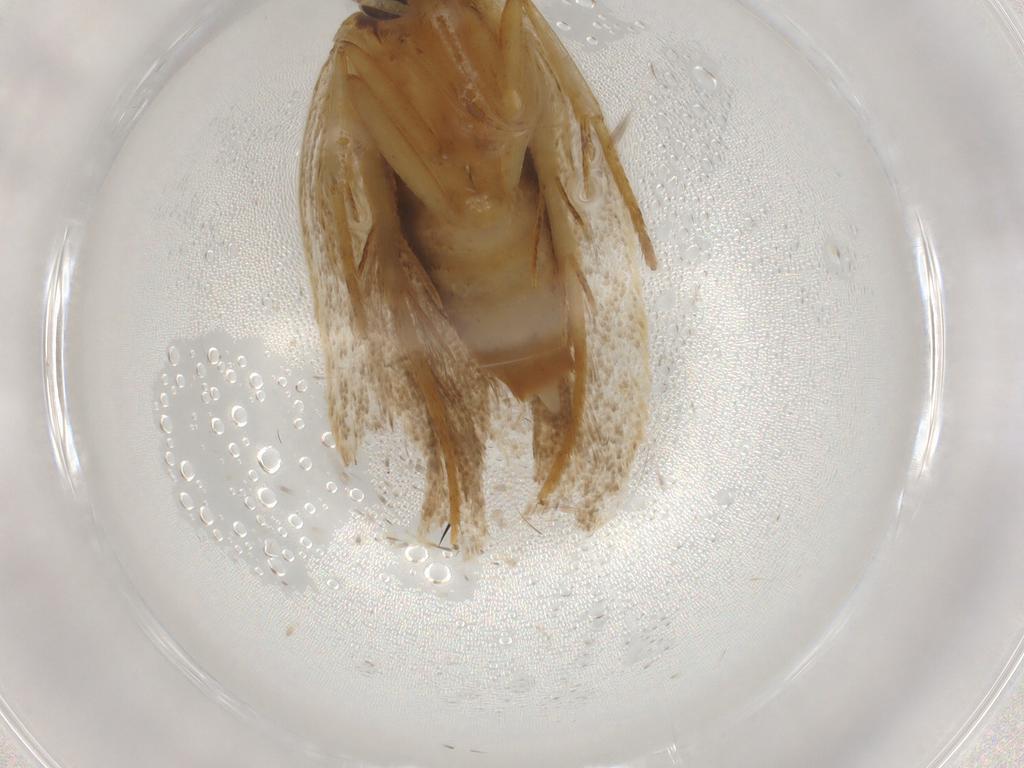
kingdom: Animalia
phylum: Arthropoda
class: Insecta
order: Lepidoptera
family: Lecithoceridae
